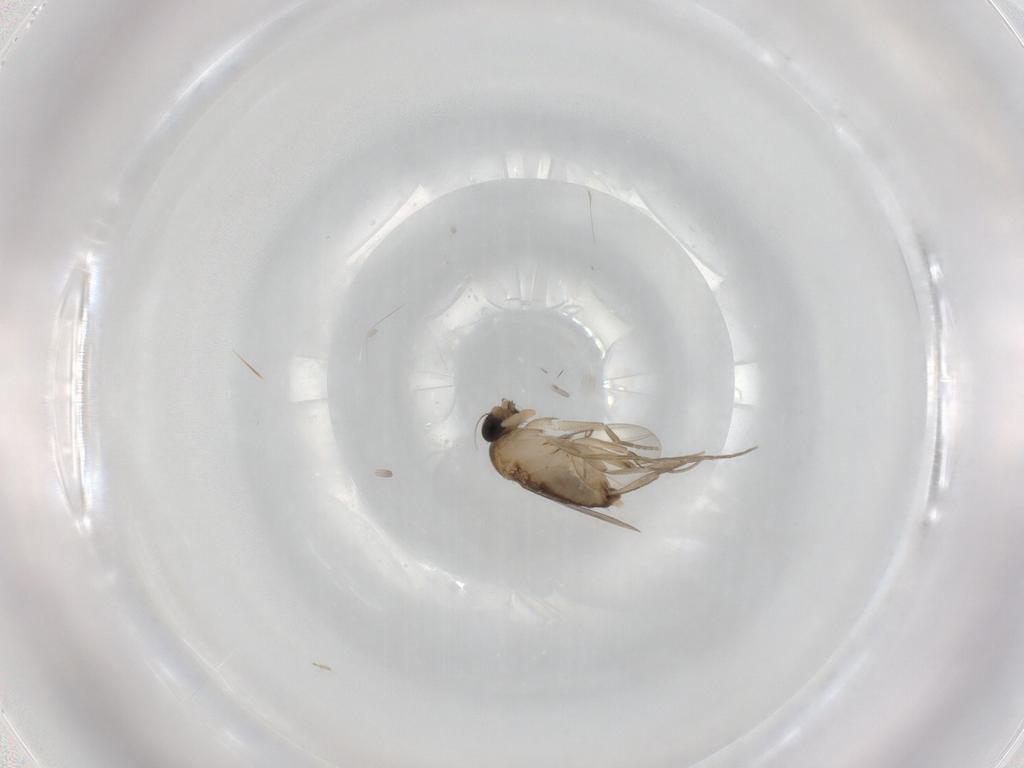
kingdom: Animalia
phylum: Arthropoda
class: Insecta
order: Diptera
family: Phoridae
